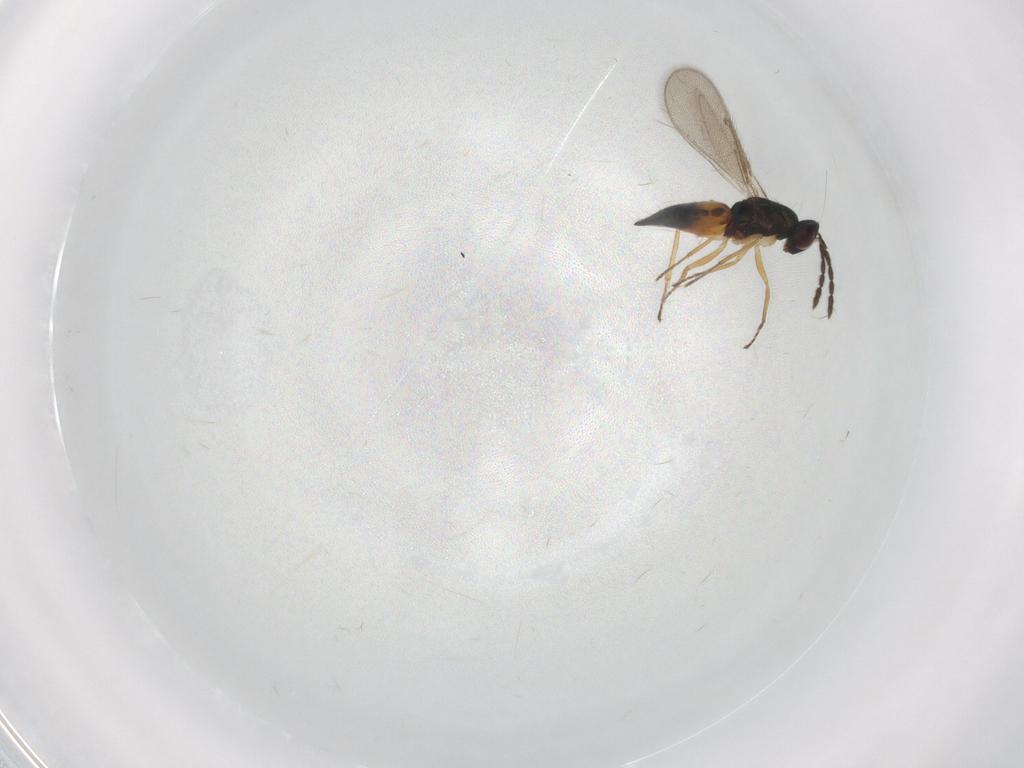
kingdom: Animalia
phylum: Arthropoda
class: Insecta
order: Hymenoptera
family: Eulophidae
